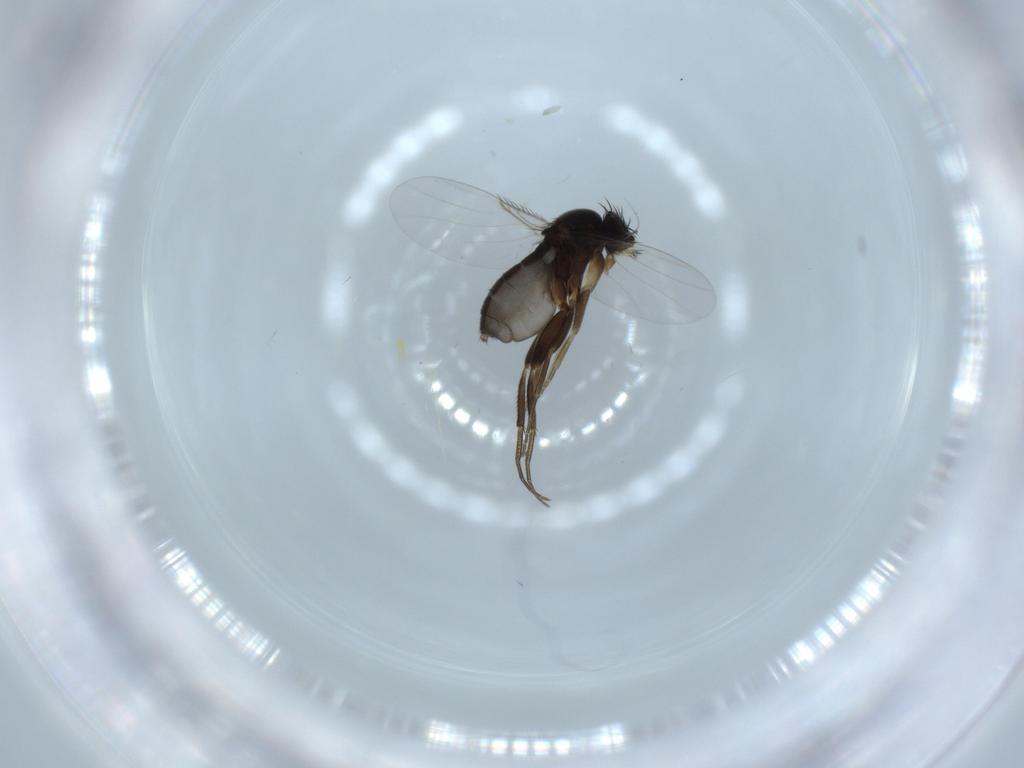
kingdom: Animalia
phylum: Arthropoda
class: Insecta
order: Diptera
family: Phoridae
